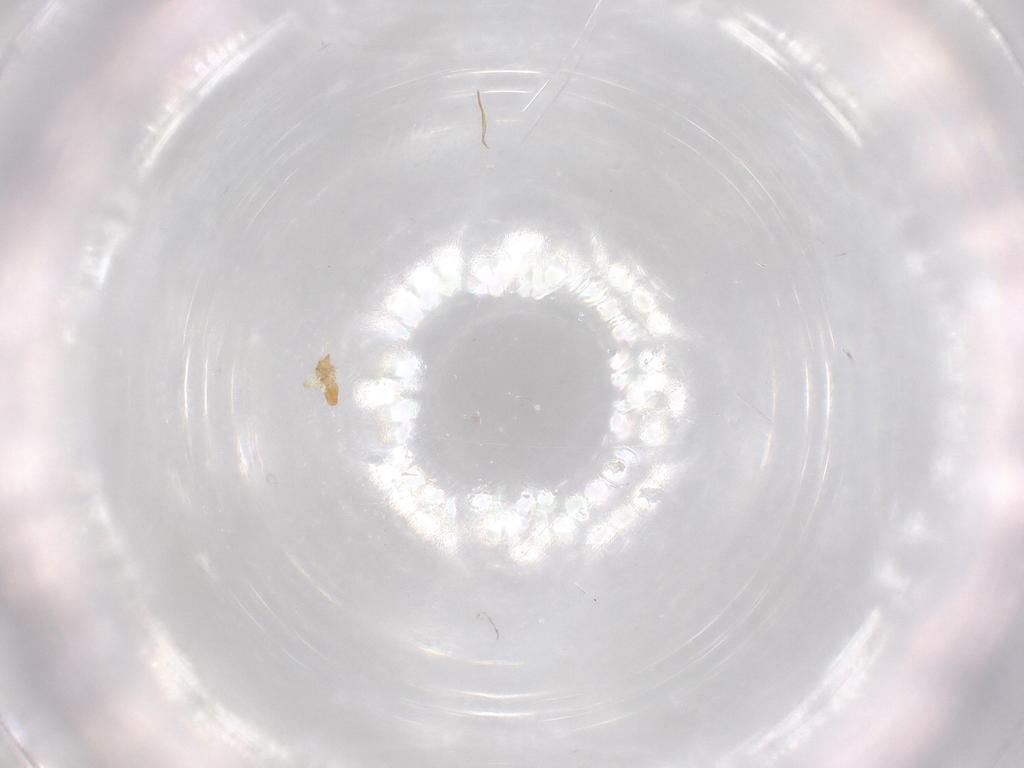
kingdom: Animalia
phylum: Arthropoda
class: Arachnida
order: Trombidiformes
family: Eupodidae
